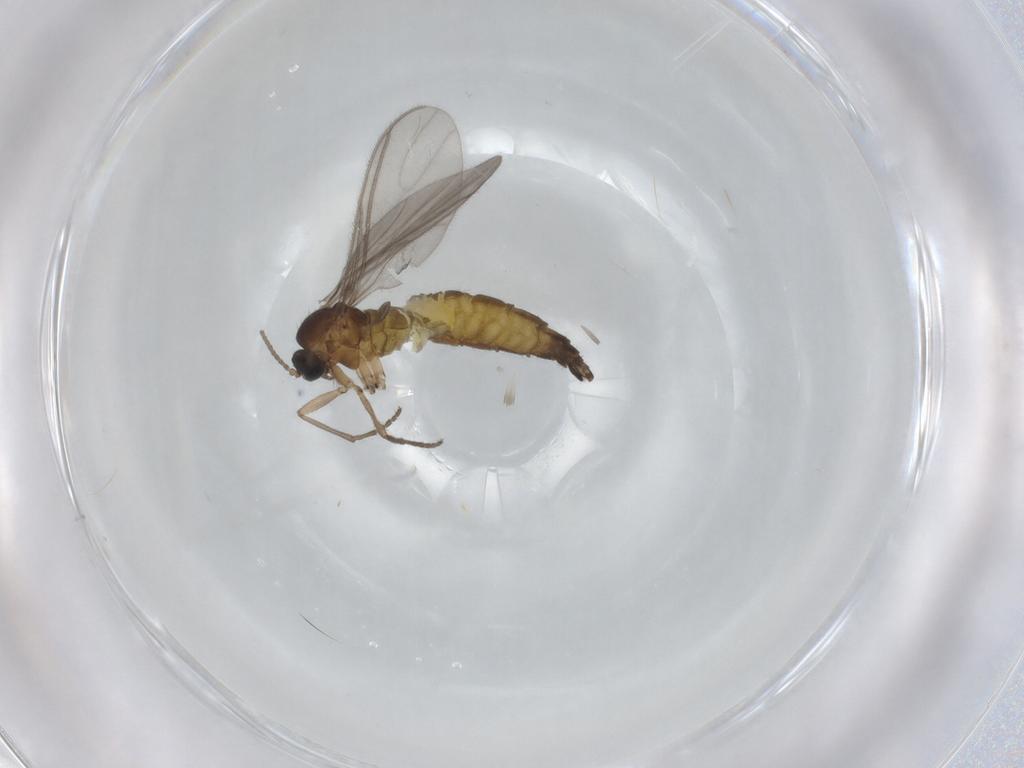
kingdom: Animalia
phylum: Arthropoda
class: Insecta
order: Diptera
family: Sciaridae
